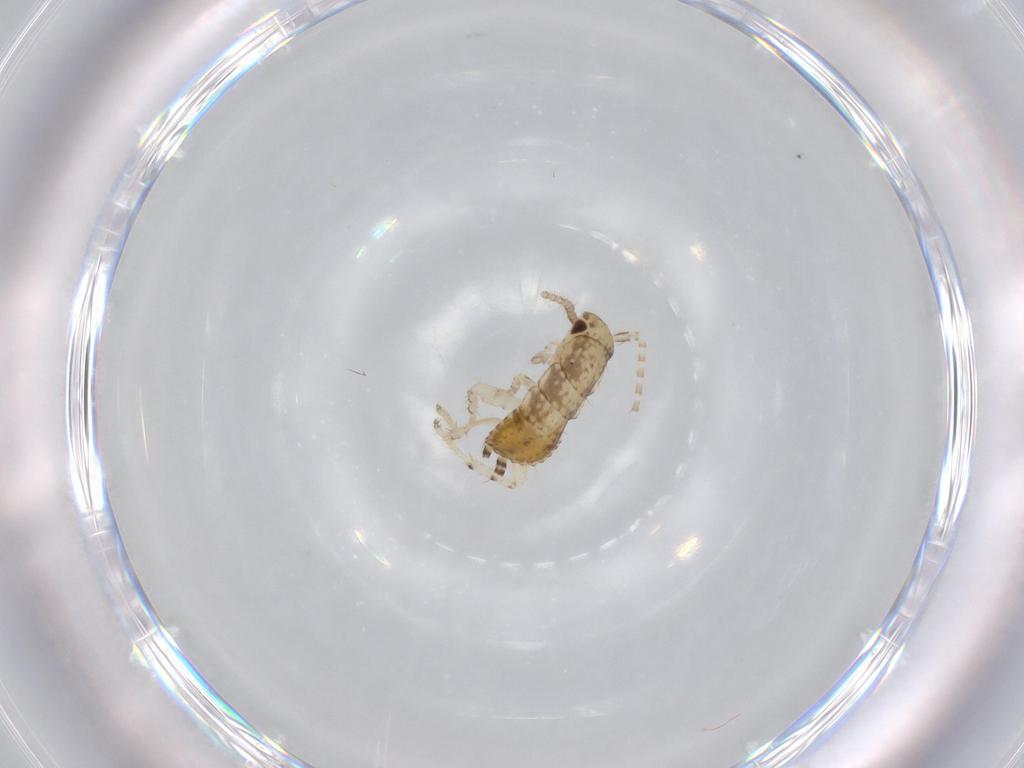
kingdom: Animalia
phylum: Arthropoda
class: Insecta
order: Blattodea
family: Ectobiidae
